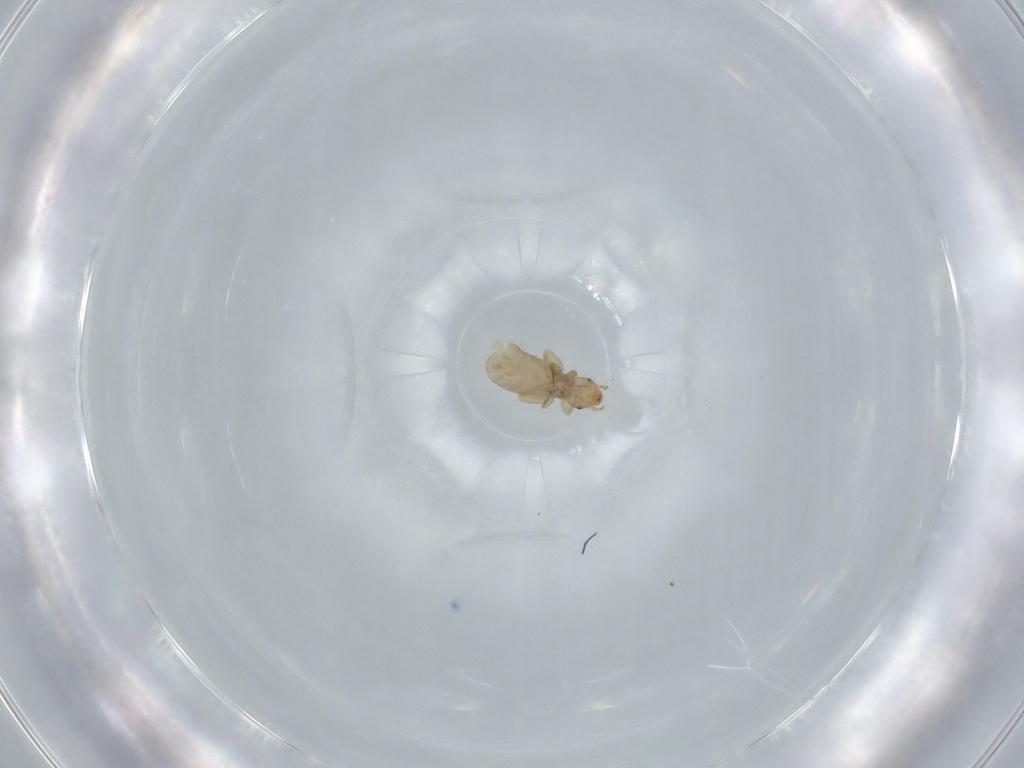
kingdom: Animalia
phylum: Arthropoda
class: Insecta
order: Psocodea
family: Liposcelididae
